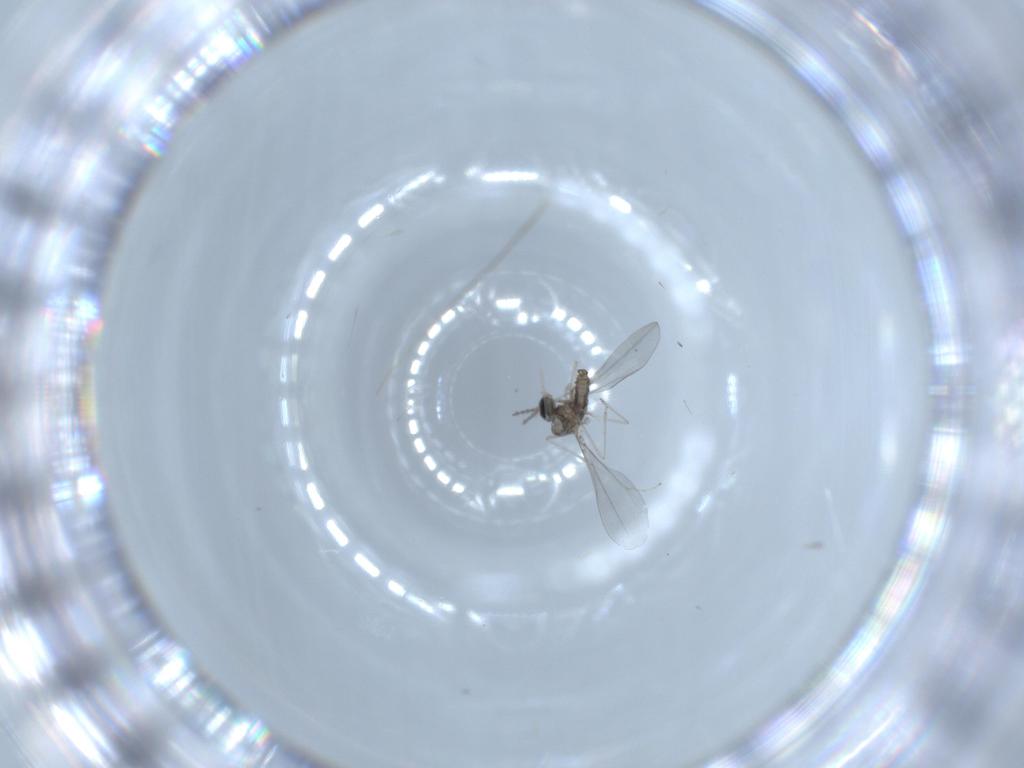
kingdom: Animalia
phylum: Arthropoda
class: Insecta
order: Diptera
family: Cecidomyiidae
